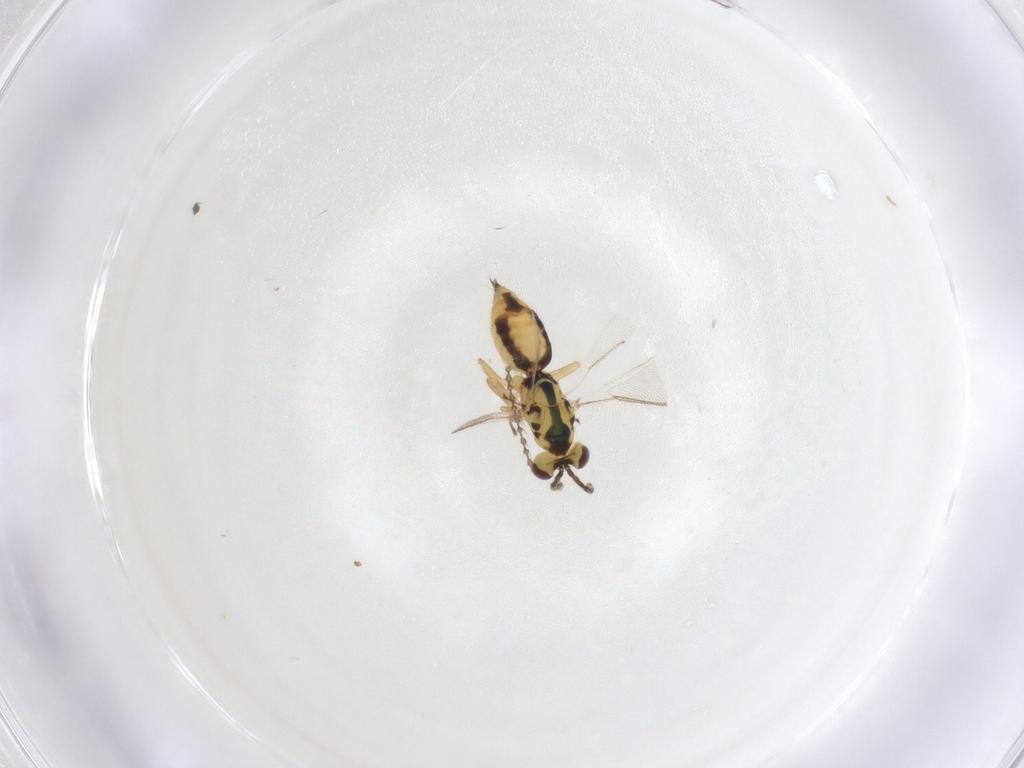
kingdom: Animalia
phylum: Arthropoda
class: Insecta
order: Hymenoptera
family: Eulophidae
